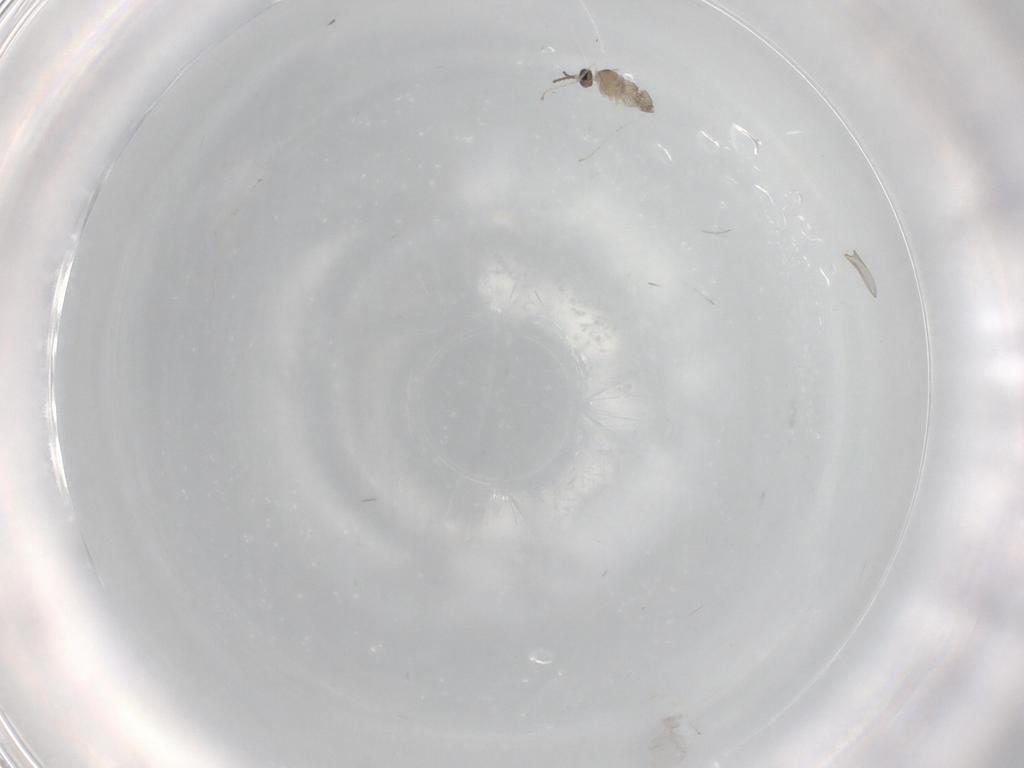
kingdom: Animalia
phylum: Arthropoda
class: Insecta
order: Diptera
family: Cecidomyiidae
